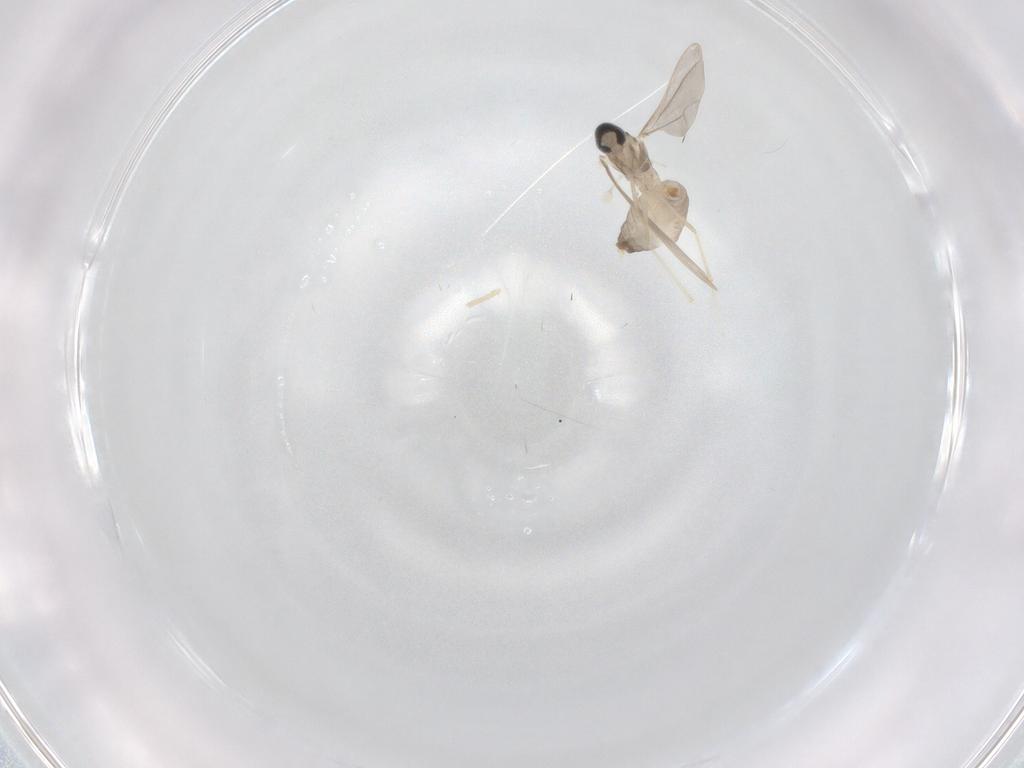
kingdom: Animalia
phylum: Arthropoda
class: Insecta
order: Diptera
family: Cecidomyiidae
